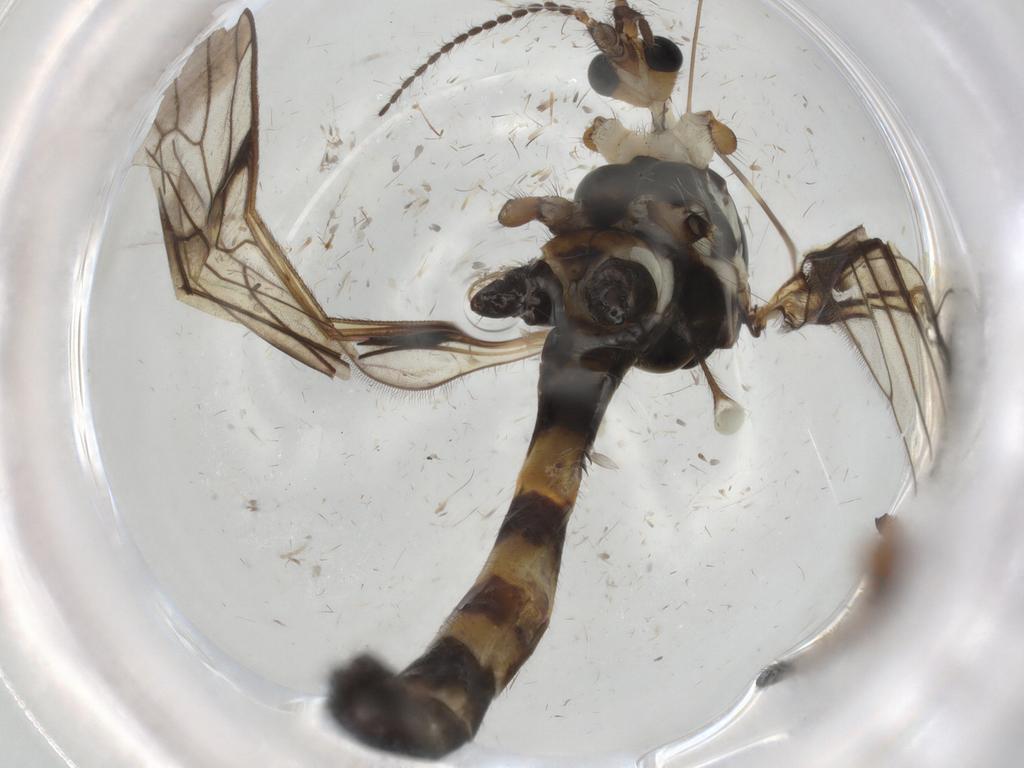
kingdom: Animalia
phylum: Arthropoda
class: Insecta
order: Diptera
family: Limoniidae
